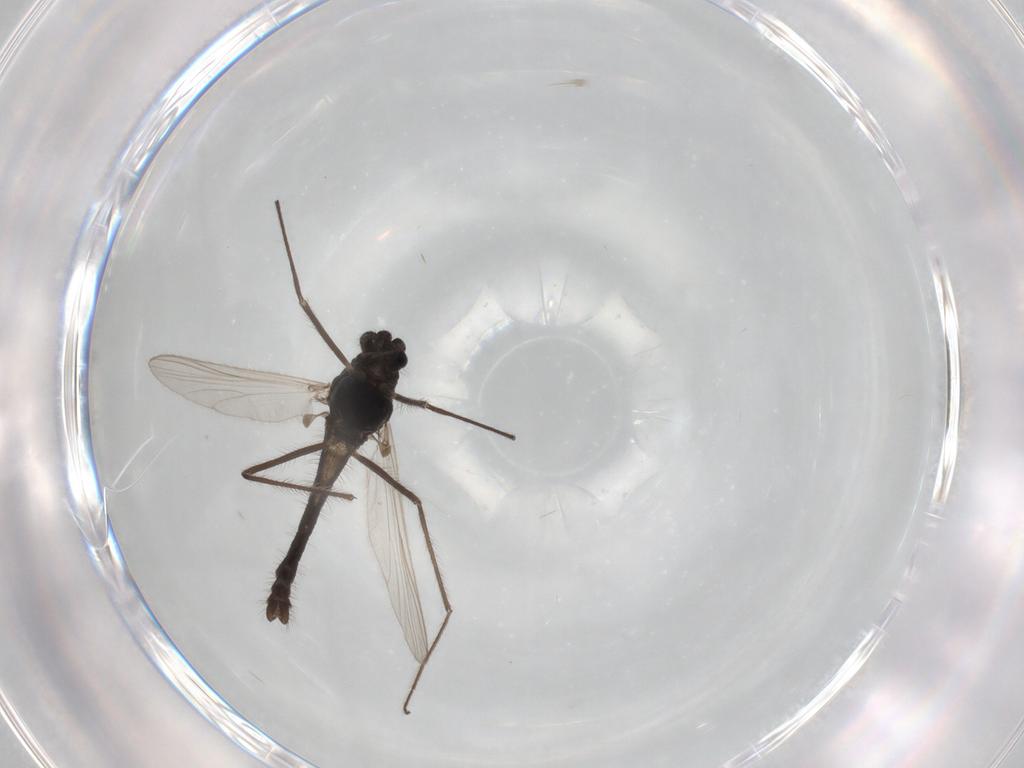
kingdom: Animalia
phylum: Arthropoda
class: Insecta
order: Diptera
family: Chironomidae
